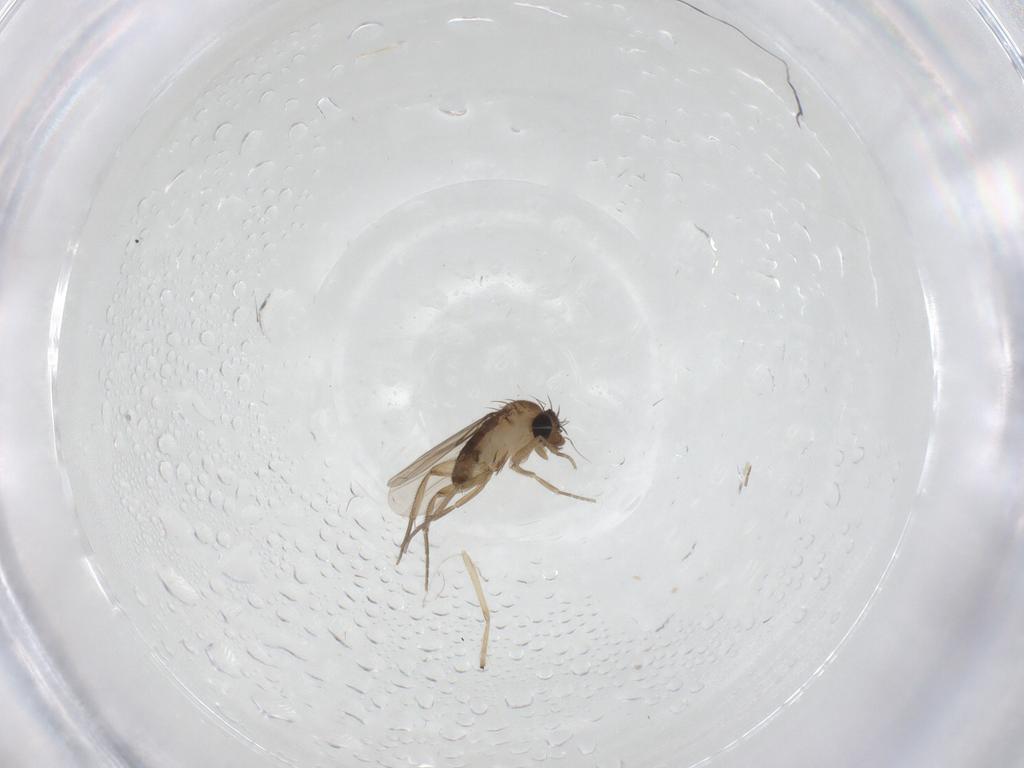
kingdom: Animalia
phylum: Arthropoda
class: Insecta
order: Diptera
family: Phoridae
